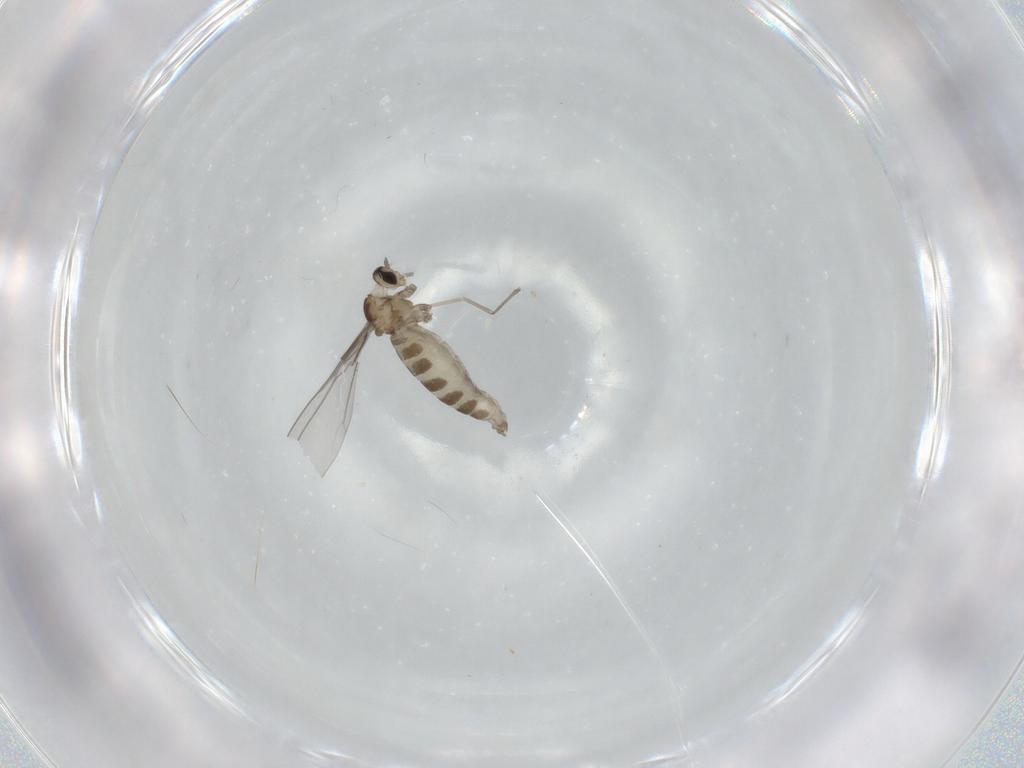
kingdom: Animalia
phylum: Arthropoda
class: Insecta
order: Diptera
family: Cecidomyiidae
